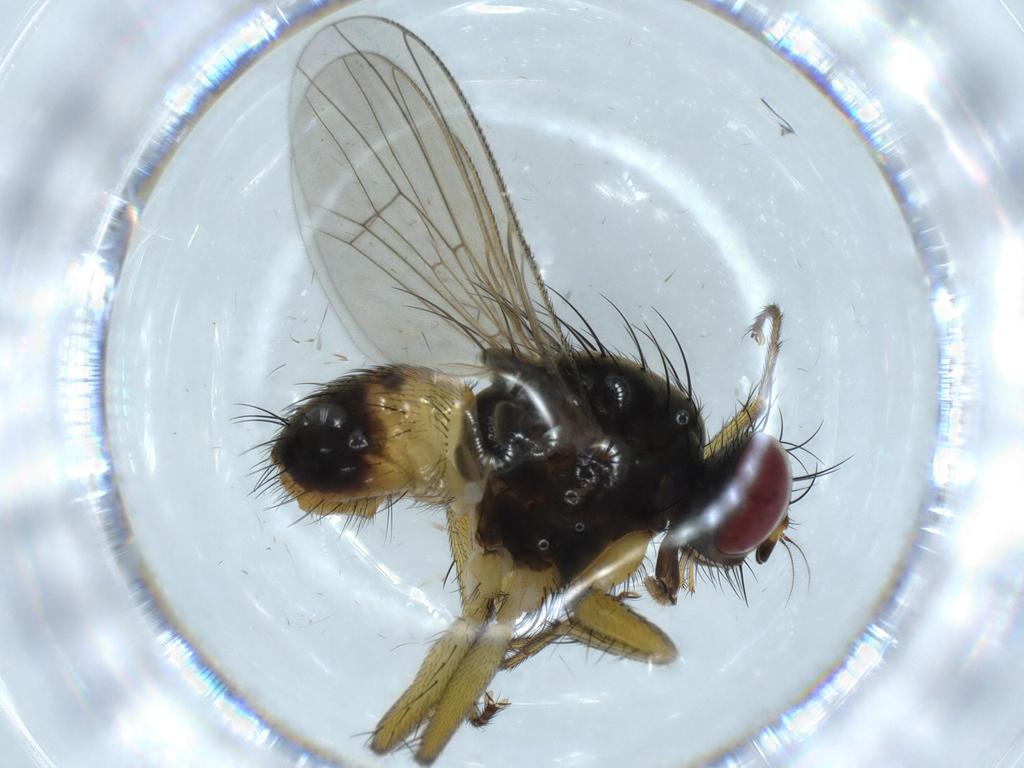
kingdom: Animalia
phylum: Arthropoda
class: Insecta
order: Diptera
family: Muscidae
